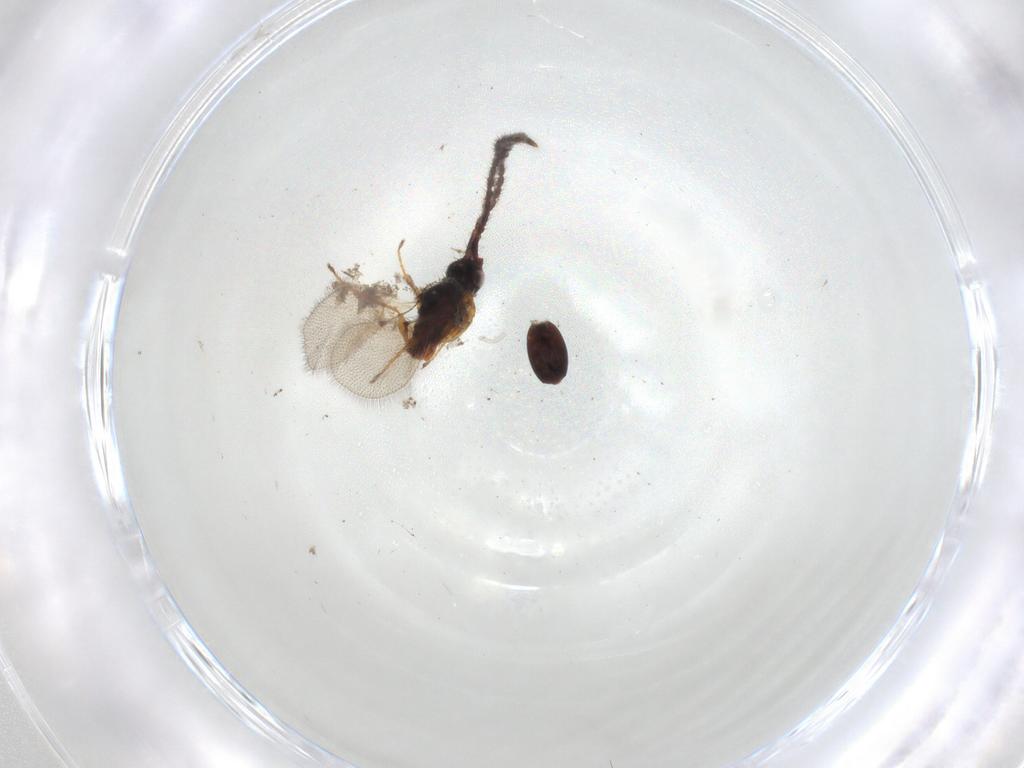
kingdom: Animalia
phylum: Arthropoda
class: Insecta
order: Hymenoptera
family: Diapriidae
